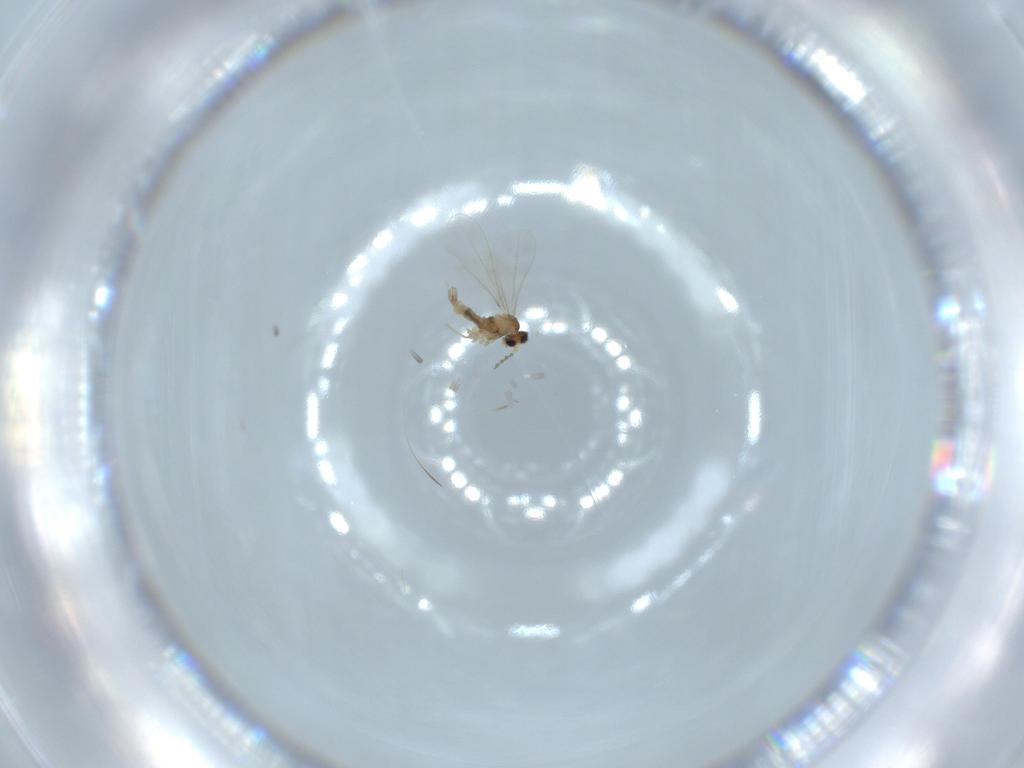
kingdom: Animalia
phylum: Arthropoda
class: Insecta
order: Diptera
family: Cecidomyiidae
